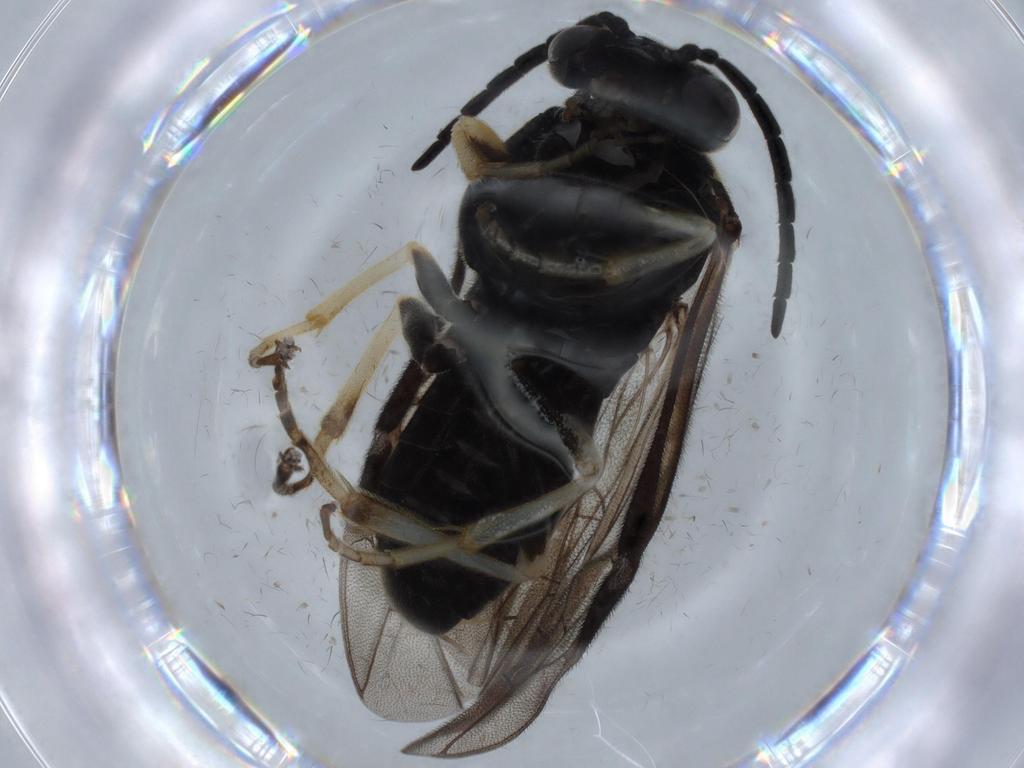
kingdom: Animalia
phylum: Arthropoda
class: Insecta
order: Hymenoptera
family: Tenthredinidae
